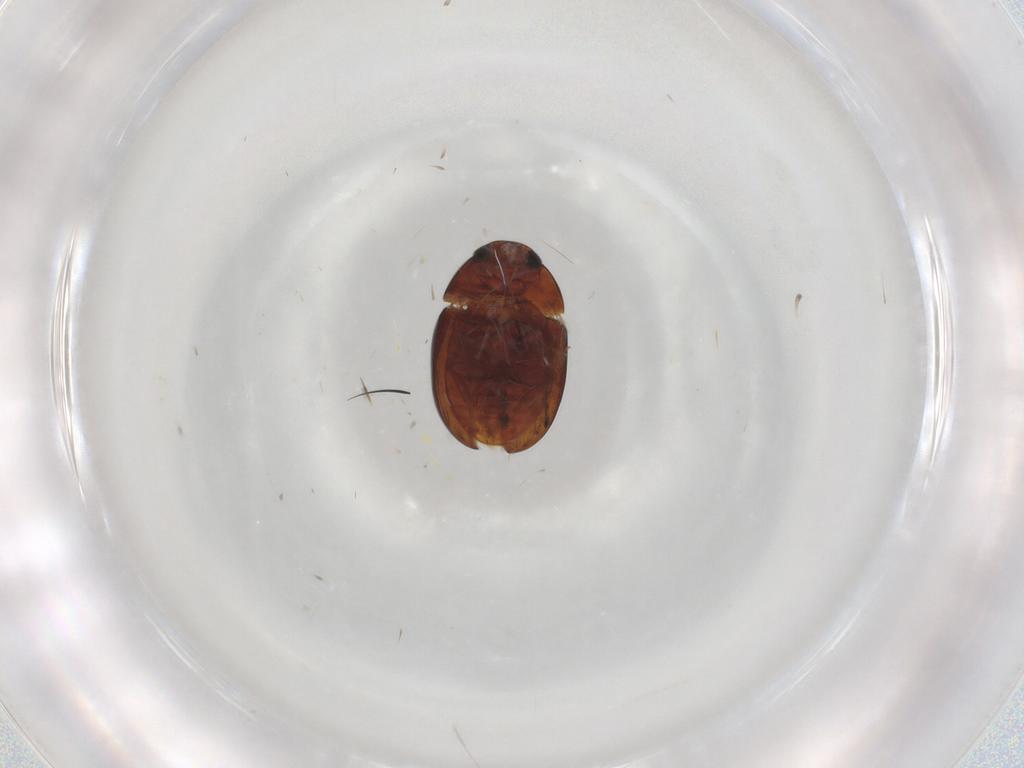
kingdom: Animalia
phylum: Arthropoda
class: Insecta
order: Coleoptera
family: Phalacridae
